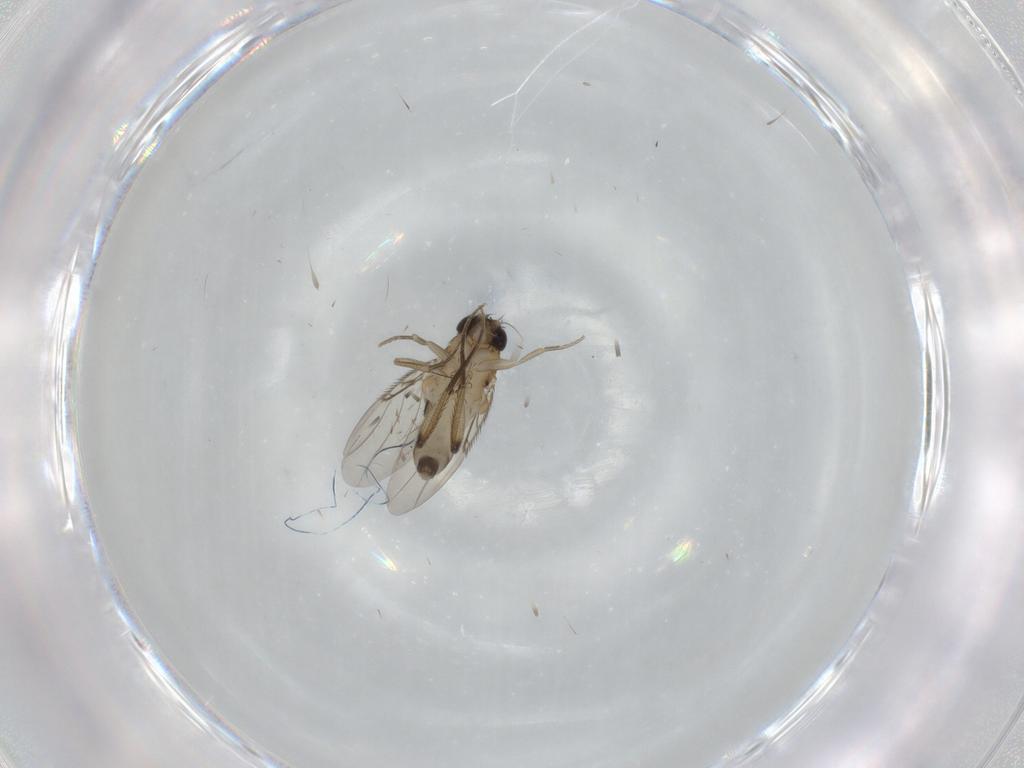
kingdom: Animalia
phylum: Arthropoda
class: Insecta
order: Diptera
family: Phoridae
